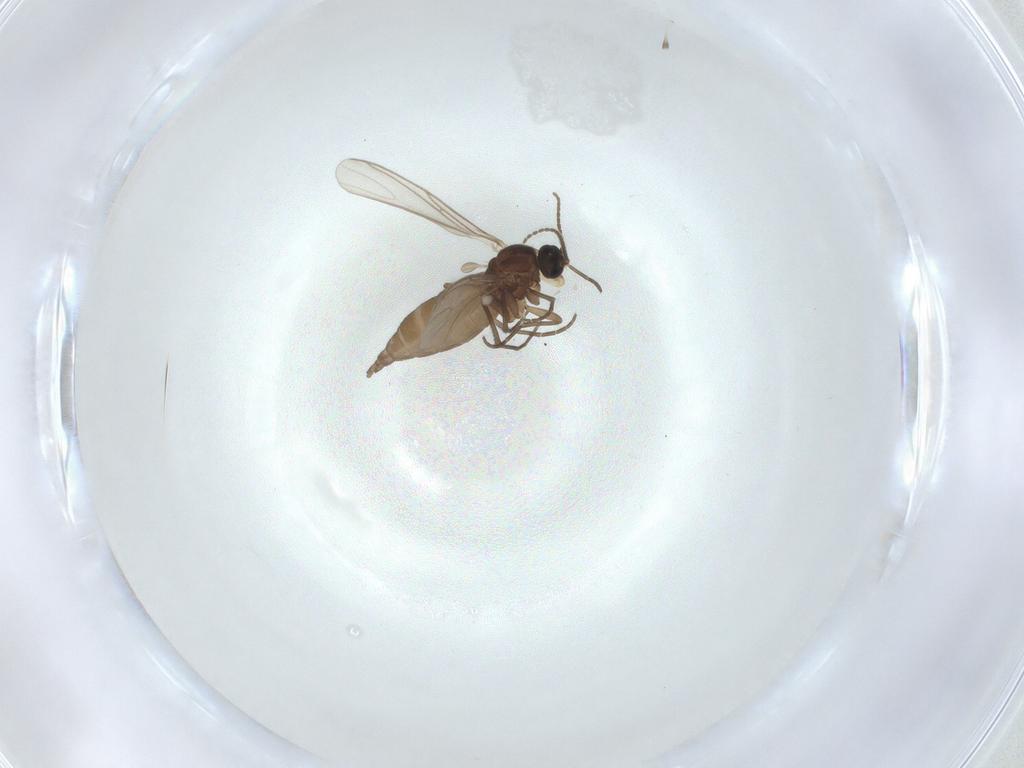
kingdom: Animalia
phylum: Arthropoda
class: Insecta
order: Diptera
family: Sciaridae
